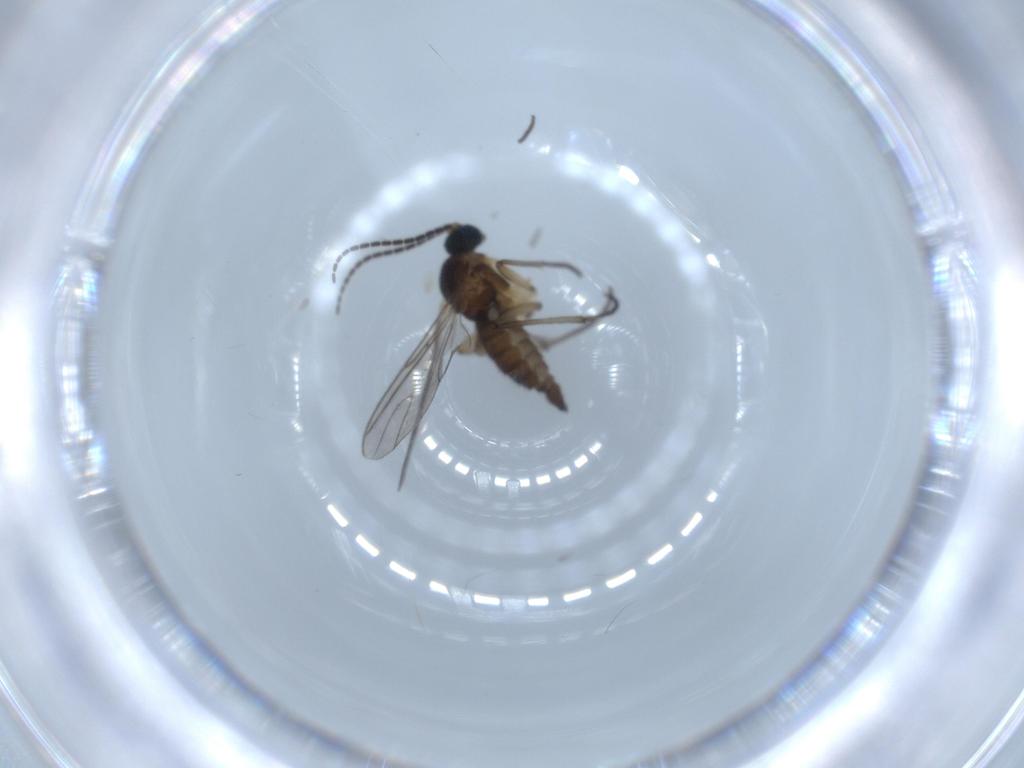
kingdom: Animalia
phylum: Arthropoda
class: Insecta
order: Diptera
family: Sciaridae
